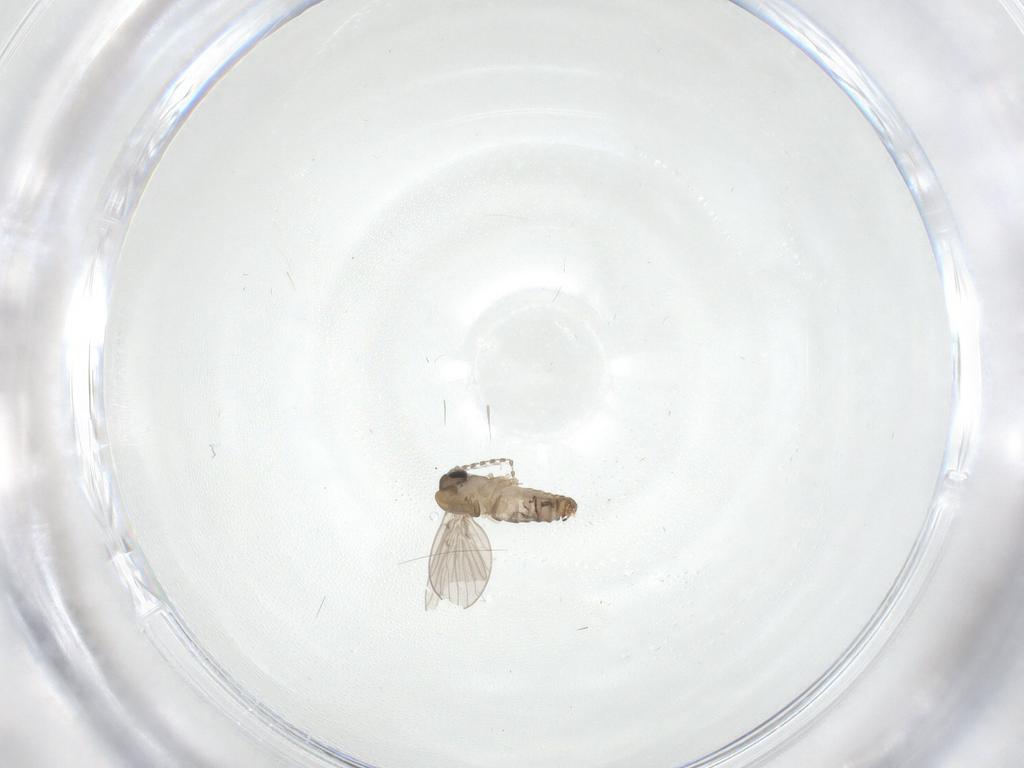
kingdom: Animalia
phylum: Arthropoda
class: Insecta
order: Diptera
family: Psychodidae
